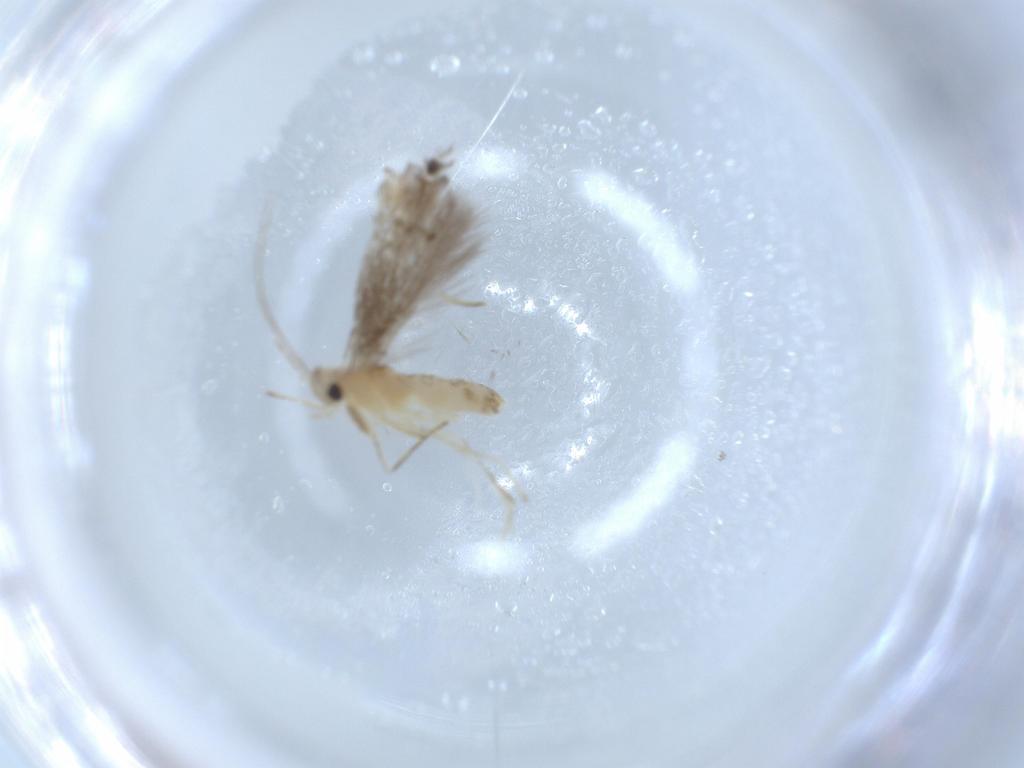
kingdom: Animalia
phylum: Arthropoda
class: Insecta
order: Lepidoptera
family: Gracillariidae
